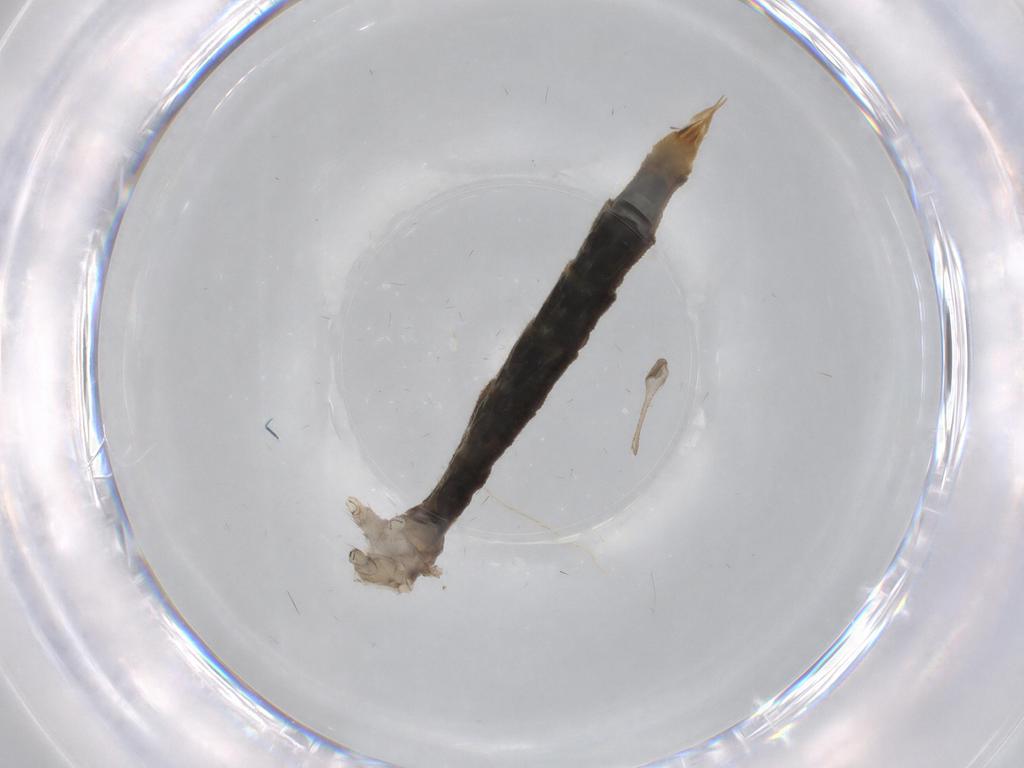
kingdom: Animalia
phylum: Arthropoda
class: Insecta
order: Diptera
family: Limoniidae
